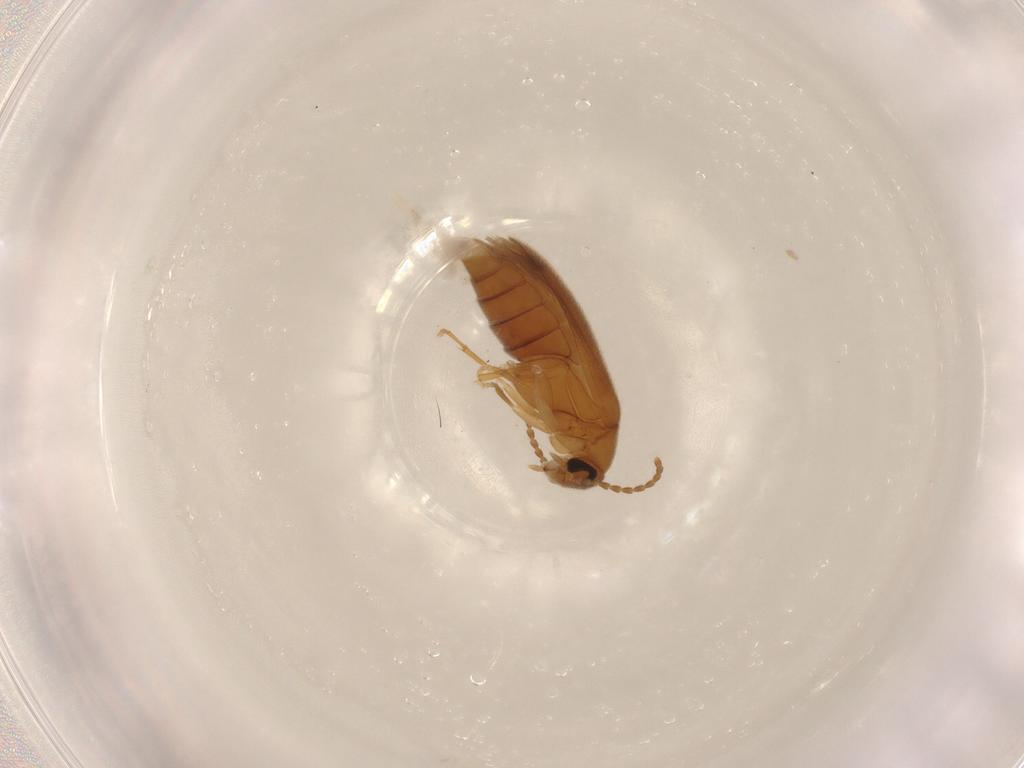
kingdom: Animalia
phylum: Arthropoda
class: Insecta
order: Coleoptera
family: Scraptiidae
